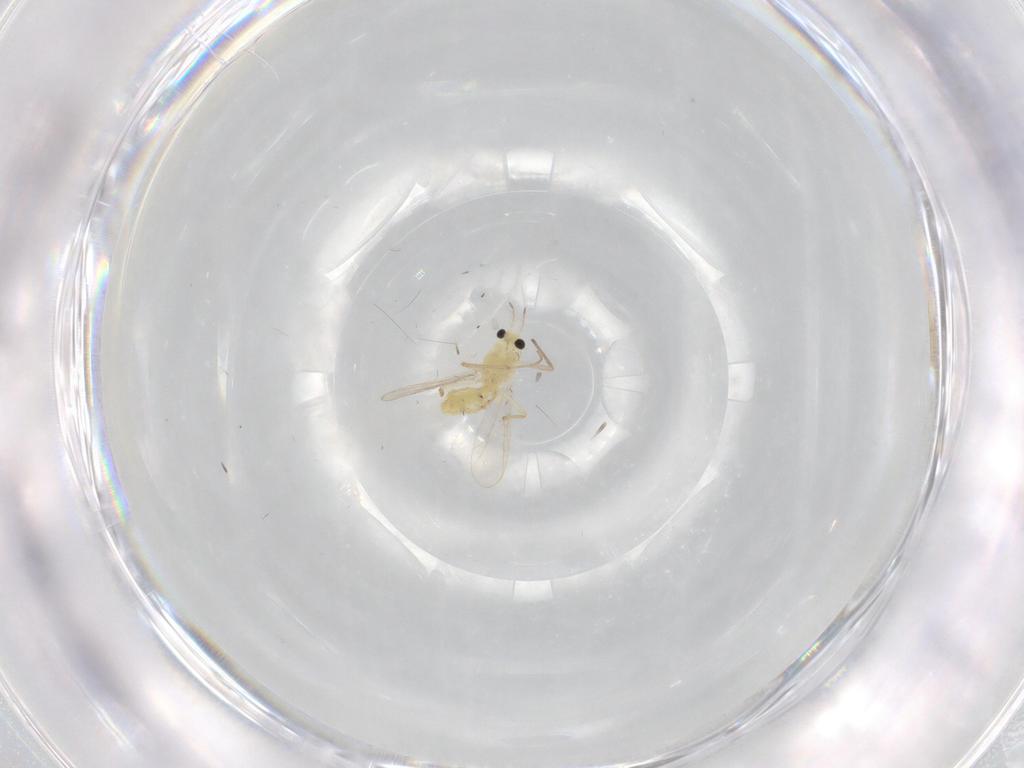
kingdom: Animalia
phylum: Arthropoda
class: Insecta
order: Diptera
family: Chironomidae
